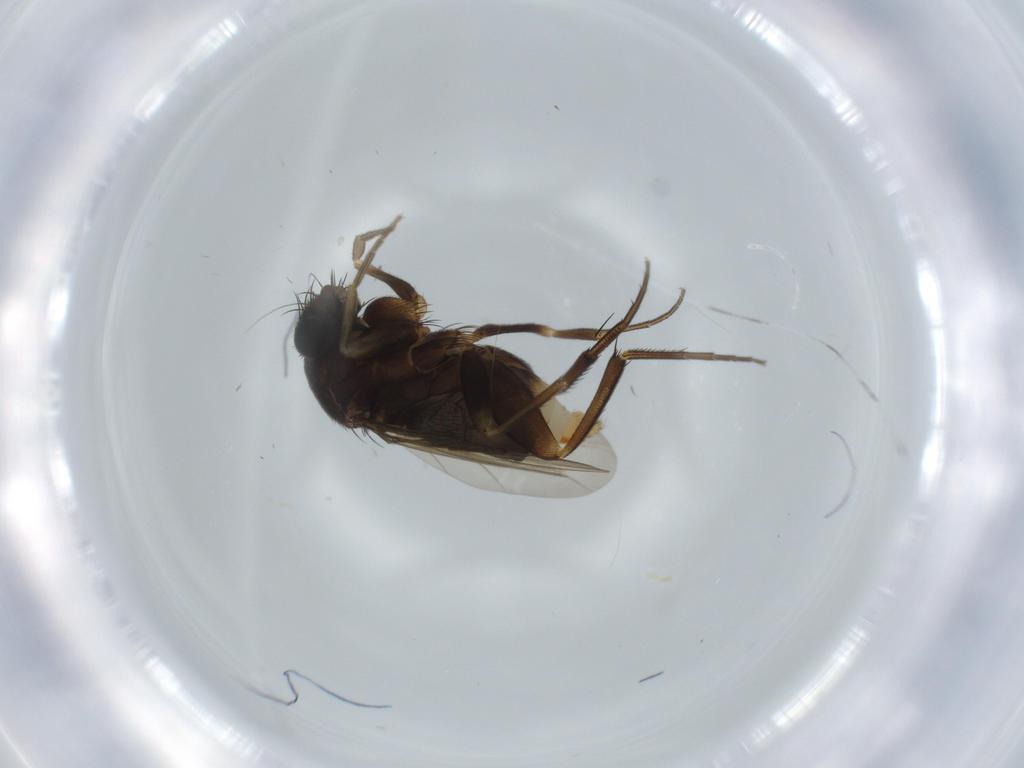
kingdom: Animalia
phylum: Arthropoda
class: Insecta
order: Diptera
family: Phoridae
